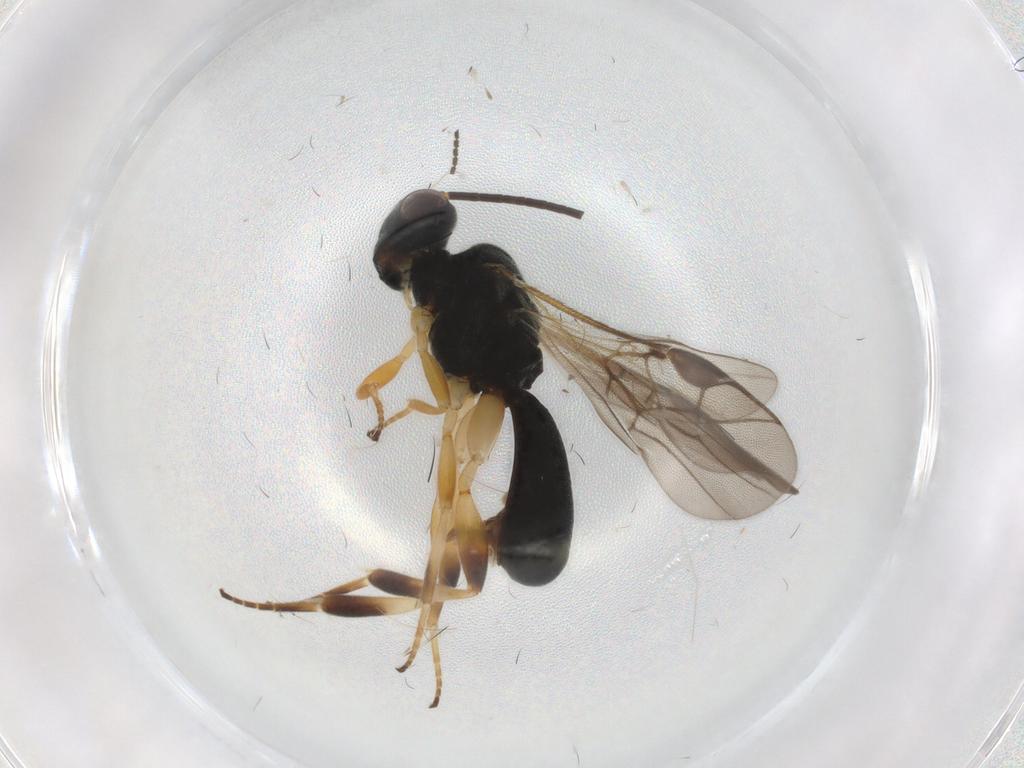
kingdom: Animalia
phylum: Arthropoda
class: Insecta
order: Hymenoptera
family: Braconidae
